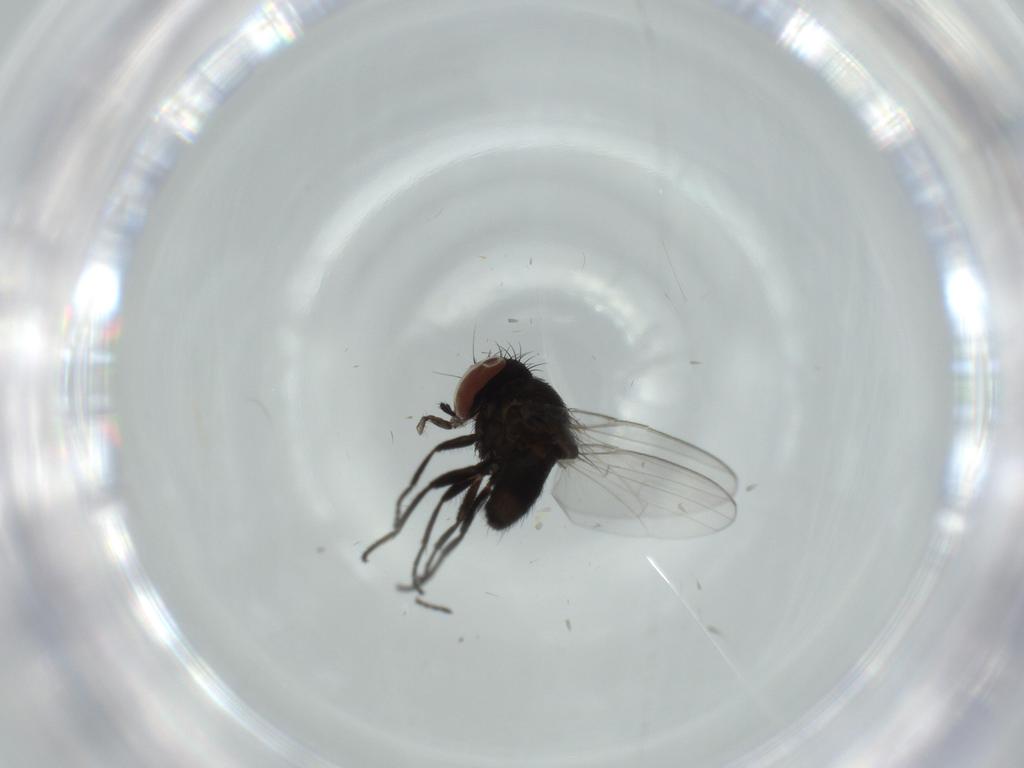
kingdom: Animalia
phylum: Arthropoda
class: Insecta
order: Diptera
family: Milichiidae
